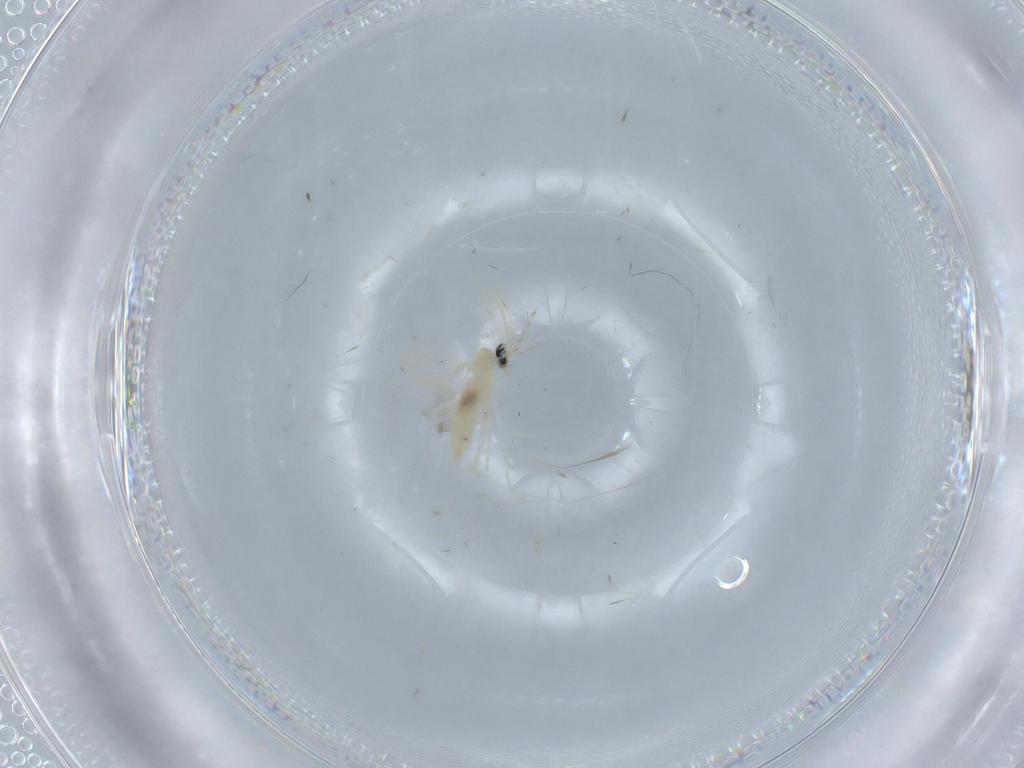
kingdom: Animalia
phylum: Arthropoda
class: Insecta
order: Diptera
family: Cecidomyiidae
